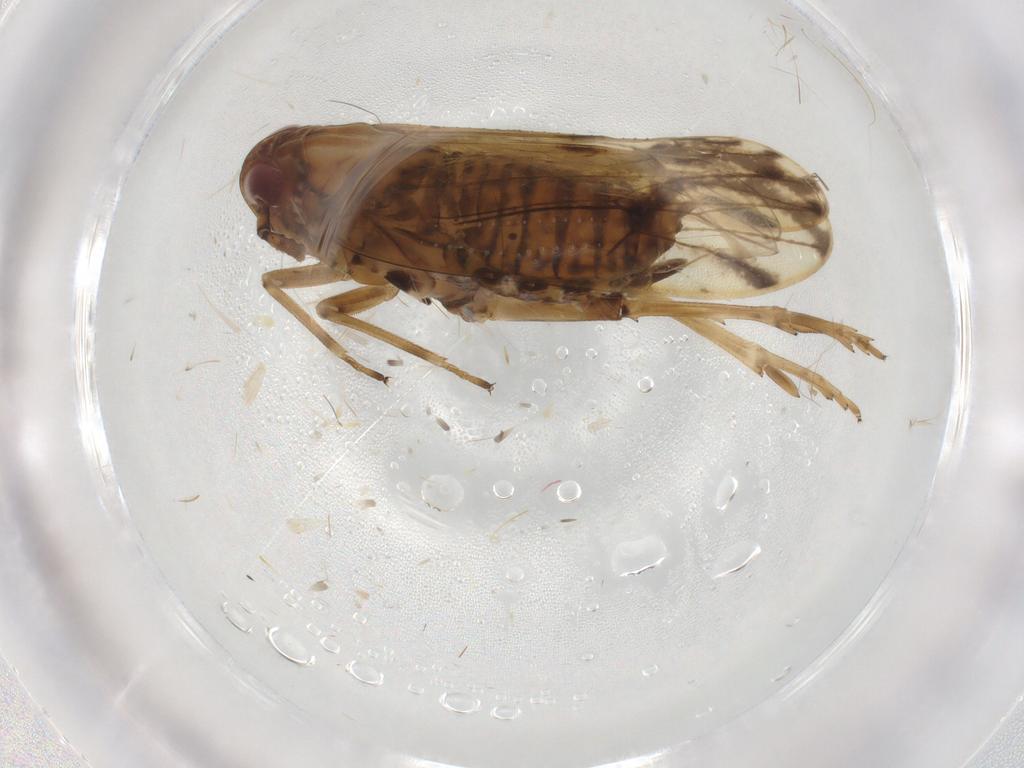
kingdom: Animalia
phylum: Arthropoda
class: Insecta
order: Hemiptera
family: Delphacidae
